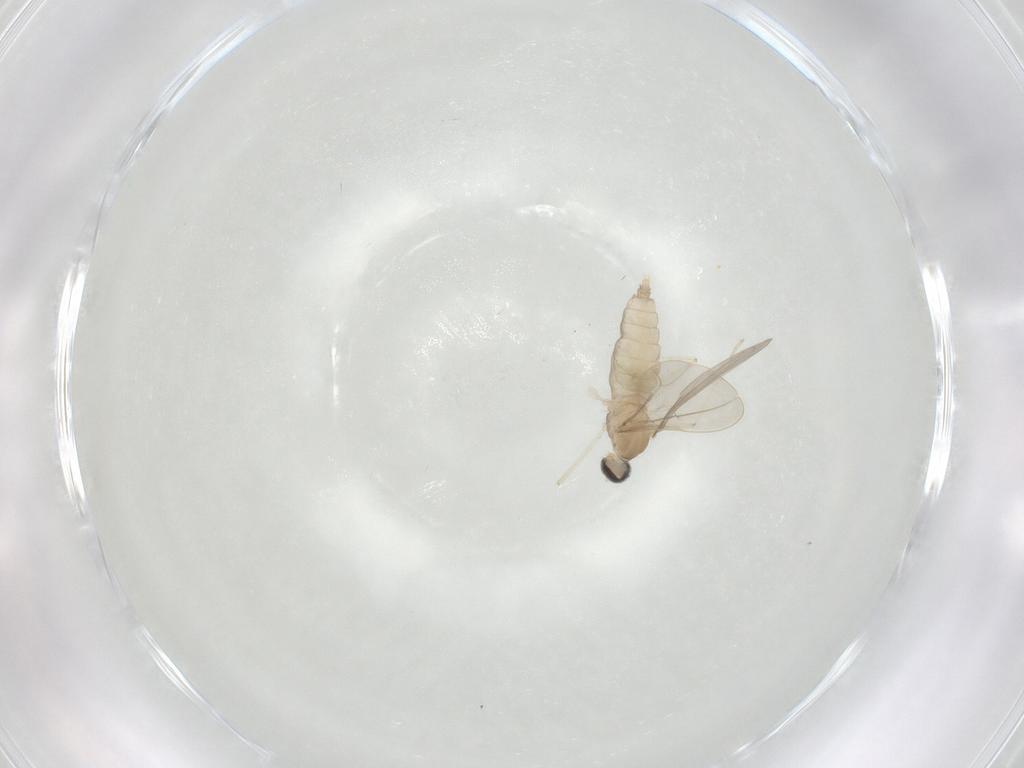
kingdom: Animalia
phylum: Arthropoda
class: Insecta
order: Diptera
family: Cecidomyiidae
